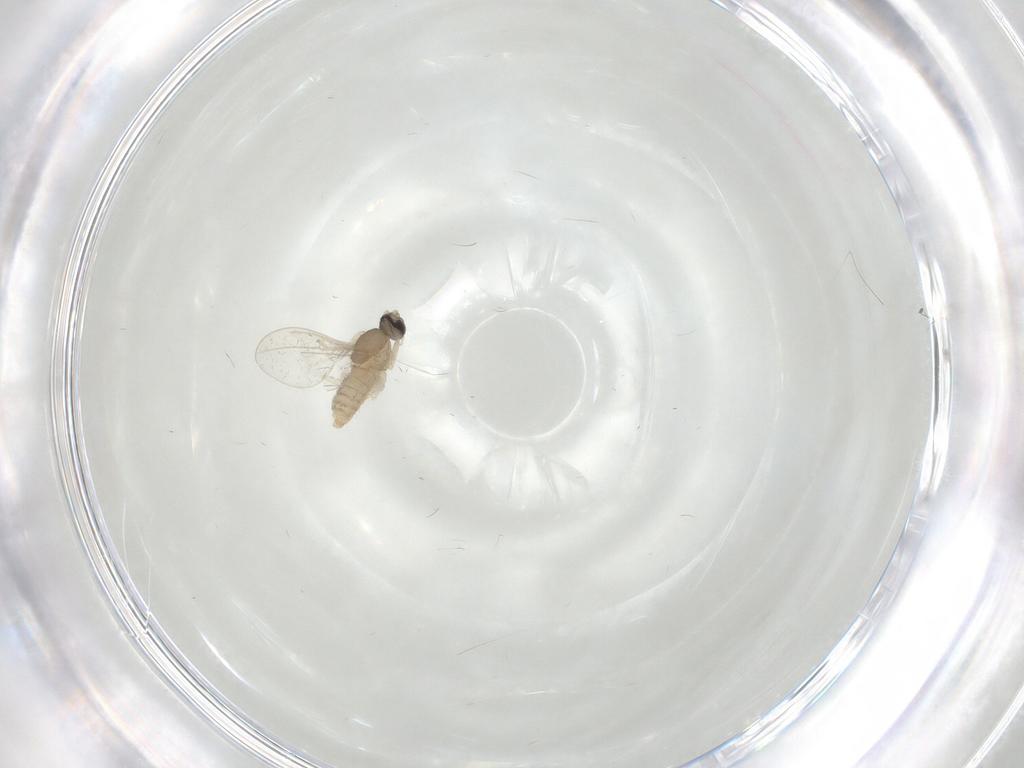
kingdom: Animalia
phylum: Arthropoda
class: Insecta
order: Diptera
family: Cecidomyiidae
